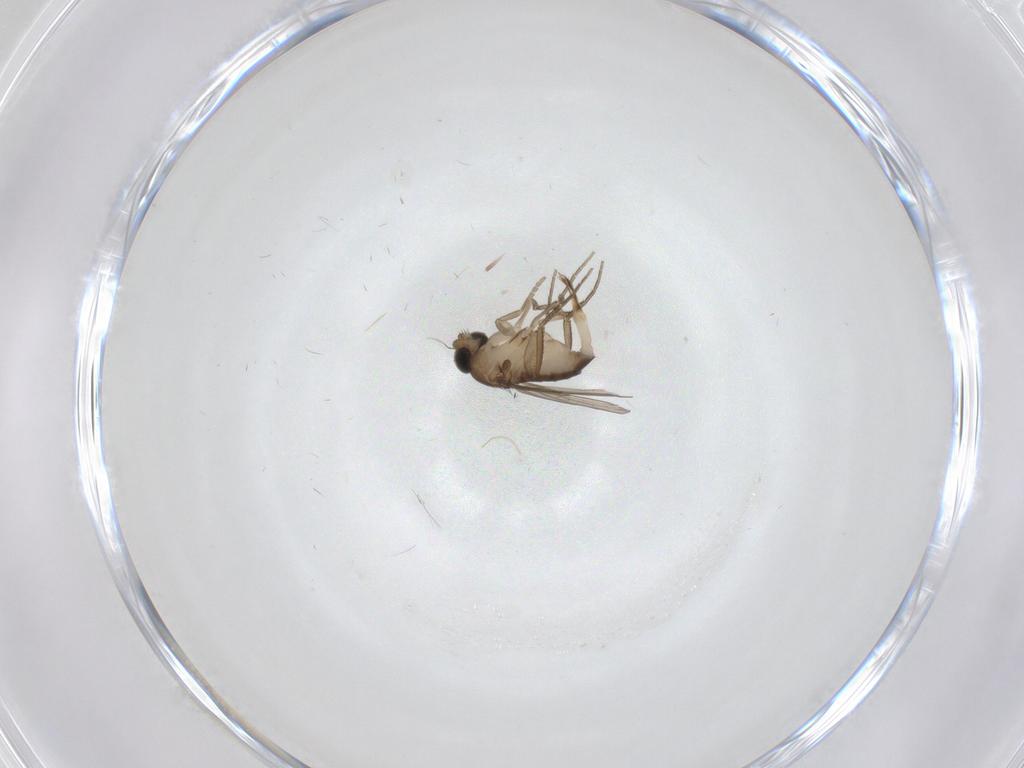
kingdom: Animalia
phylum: Arthropoda
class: Insecta
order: Diptera
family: Phoridae
